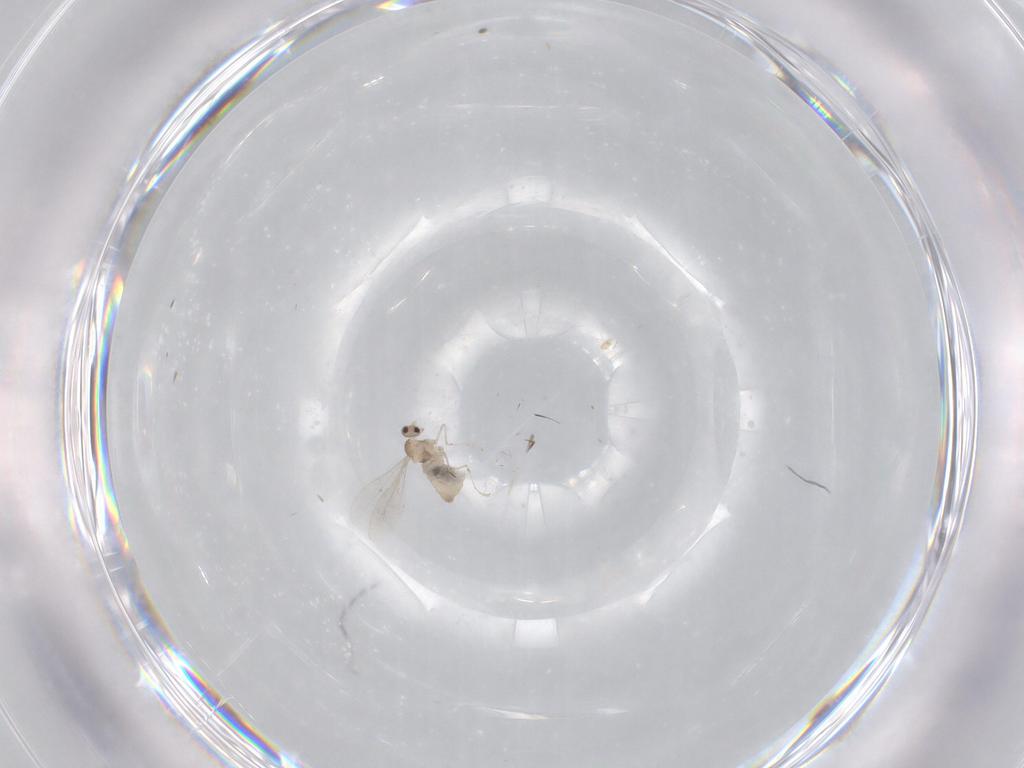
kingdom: Animalia
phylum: Arthropoda
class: Insecta
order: Diptera
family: Cecidomyiidae
